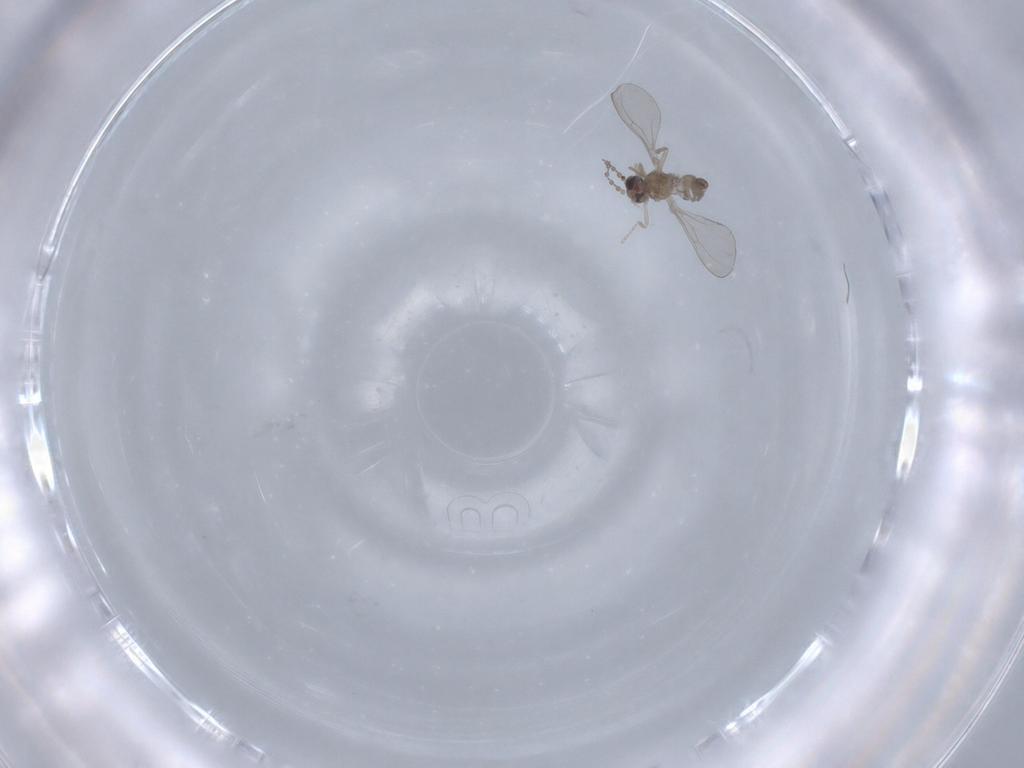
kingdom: Animalia
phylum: Arthropoda
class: Insecta
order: Diptera
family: Cecidomyiidae
